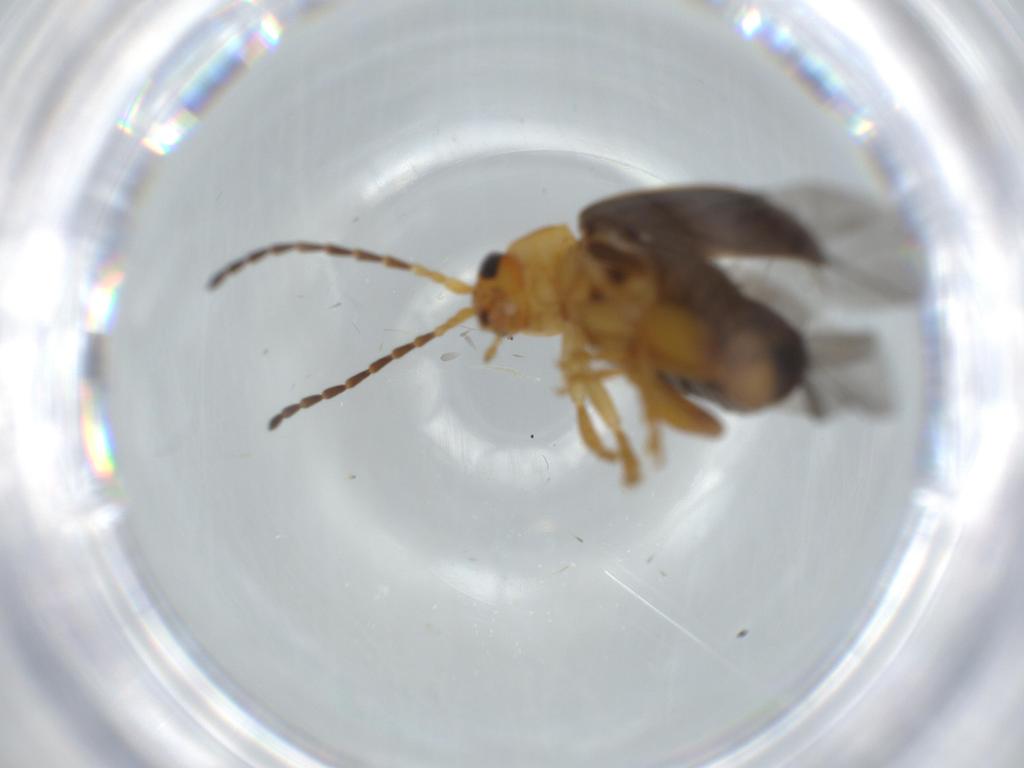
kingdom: Animalia
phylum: Arthropoda
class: Insecta
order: Coleoptera
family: Chrysomelidae
